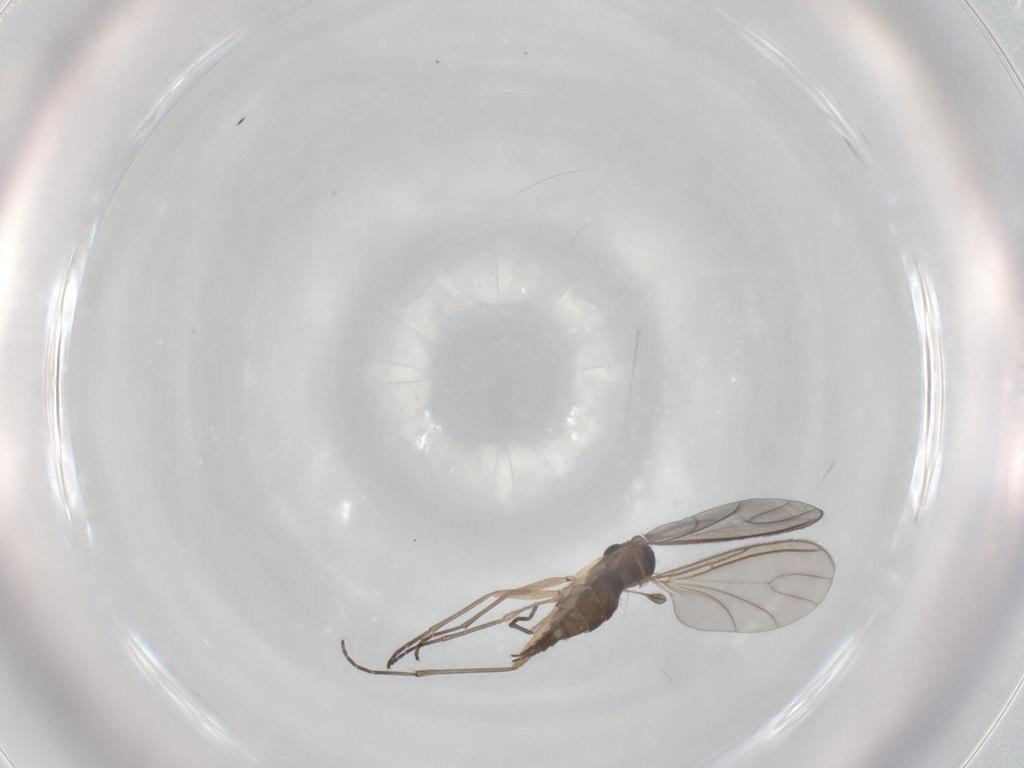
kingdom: Animalia
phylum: Arthropoda
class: Insecta
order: Diptera
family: Sciaridae
